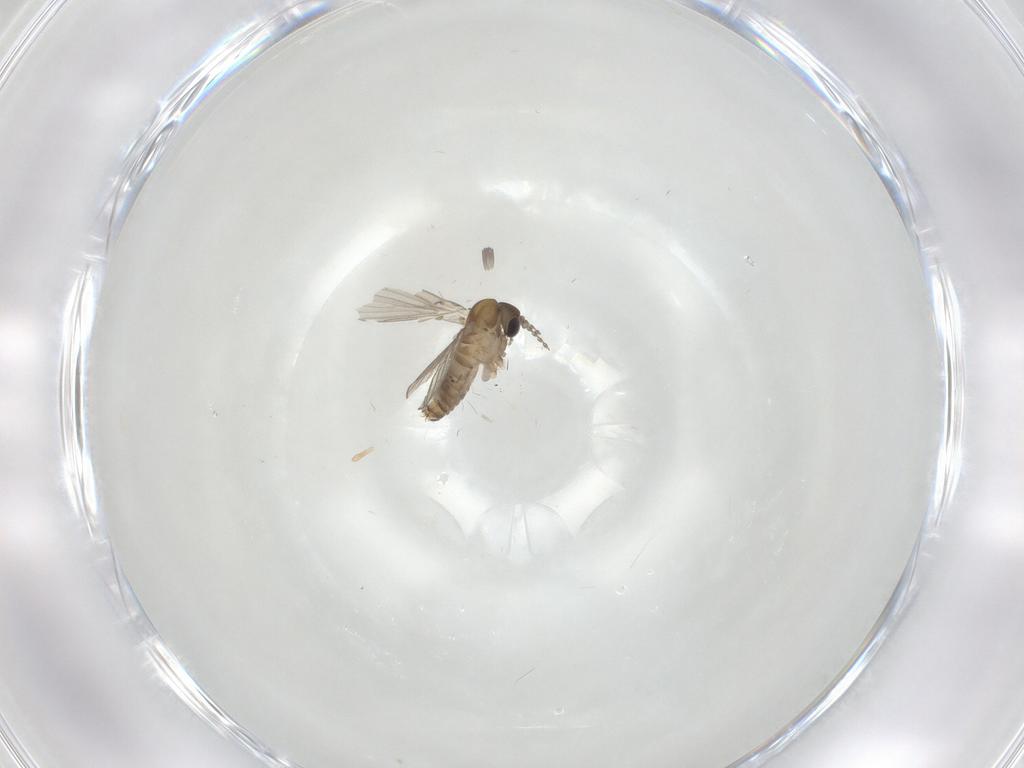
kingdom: Animalia
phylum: Arthropoda
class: Insecta
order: Diptera
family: Psychodidae
